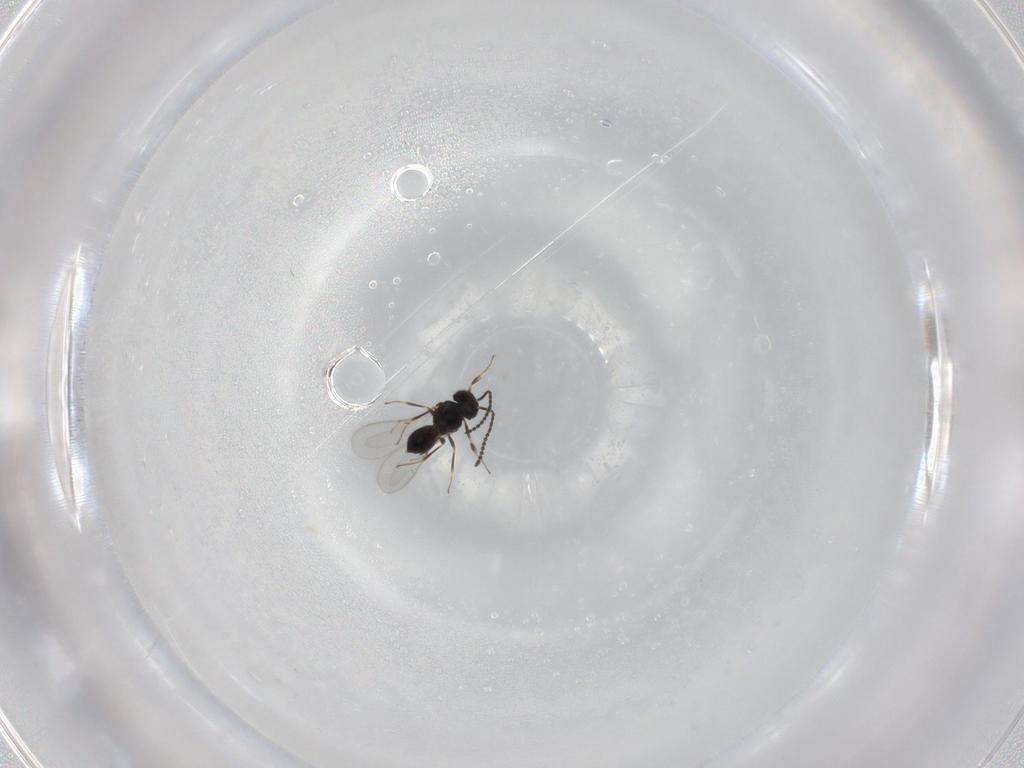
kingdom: Animalia
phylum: Arthropoda
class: Insecta
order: Hymenoptera
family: Scelionidae
